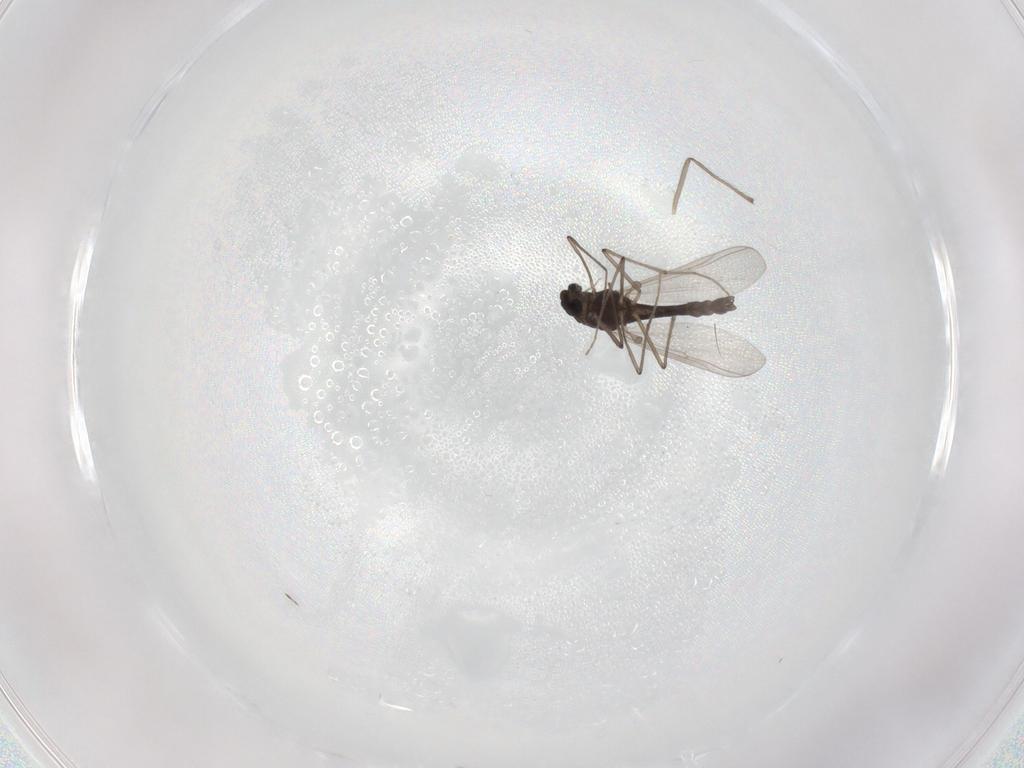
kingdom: Animalia
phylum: Arthropoda
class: Insecta
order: Diptera
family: Chironomidae
